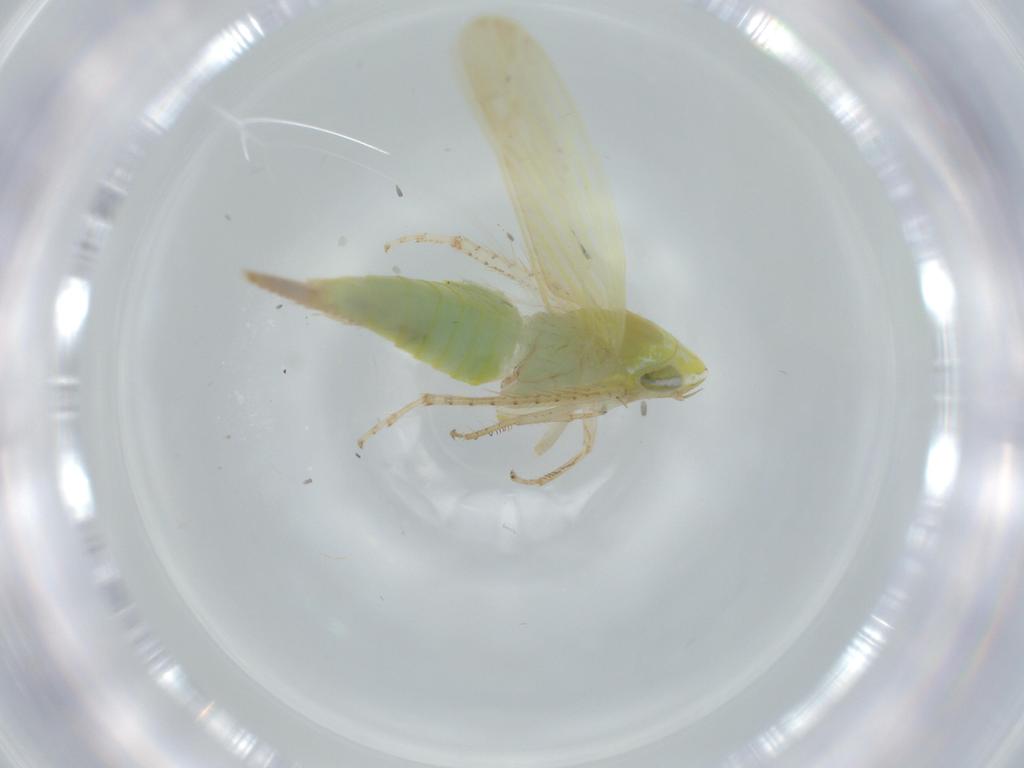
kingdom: Animalia
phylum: Arthropoda
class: Insecta
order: Hemiptera
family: Cicadellidae
